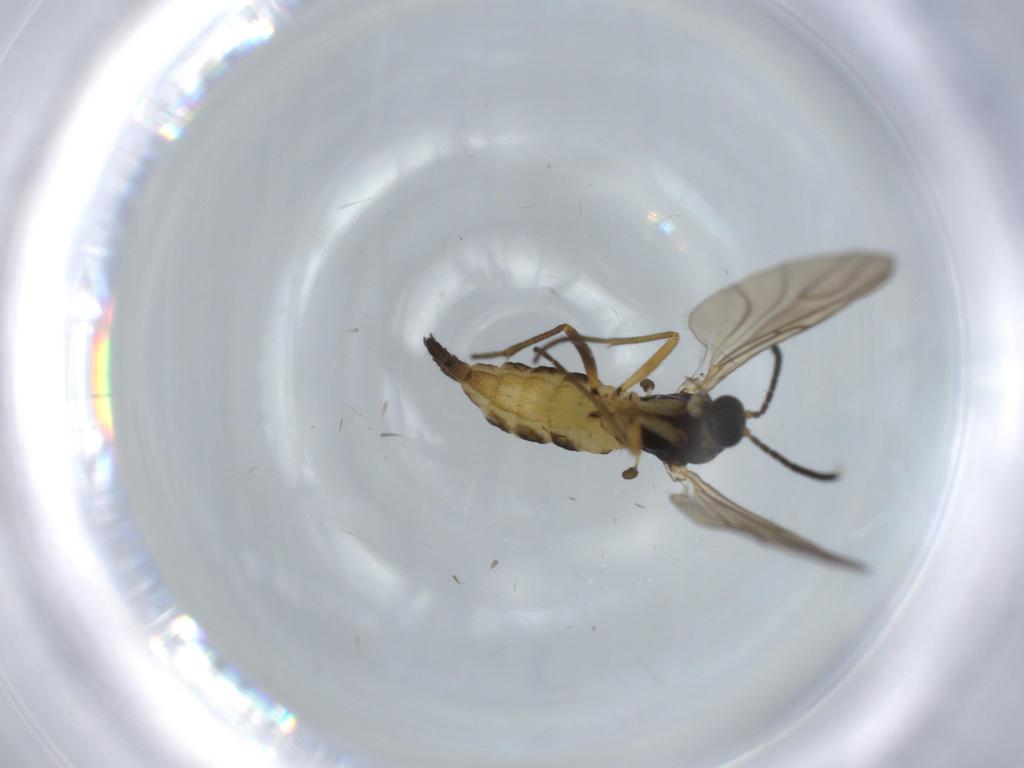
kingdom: Animalia
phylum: Arthropoda
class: Insecta
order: Diptera
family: Sciaridae
